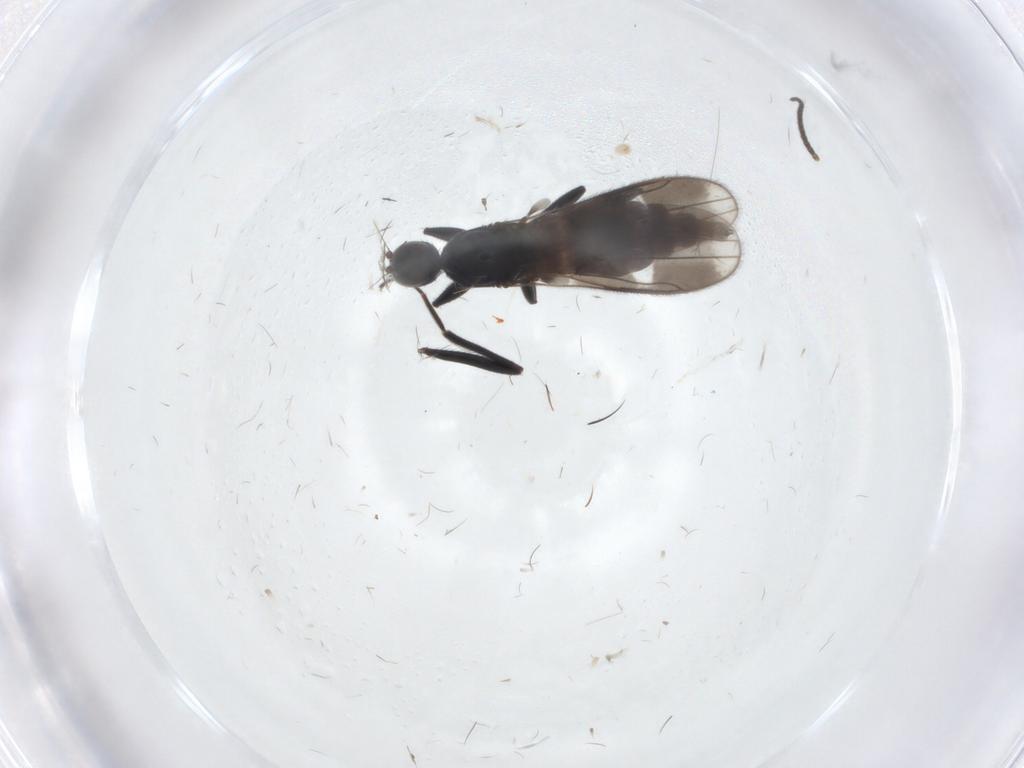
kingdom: Animalia
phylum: Arthropoda
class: Insecta
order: Diptera
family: Hybotidae
